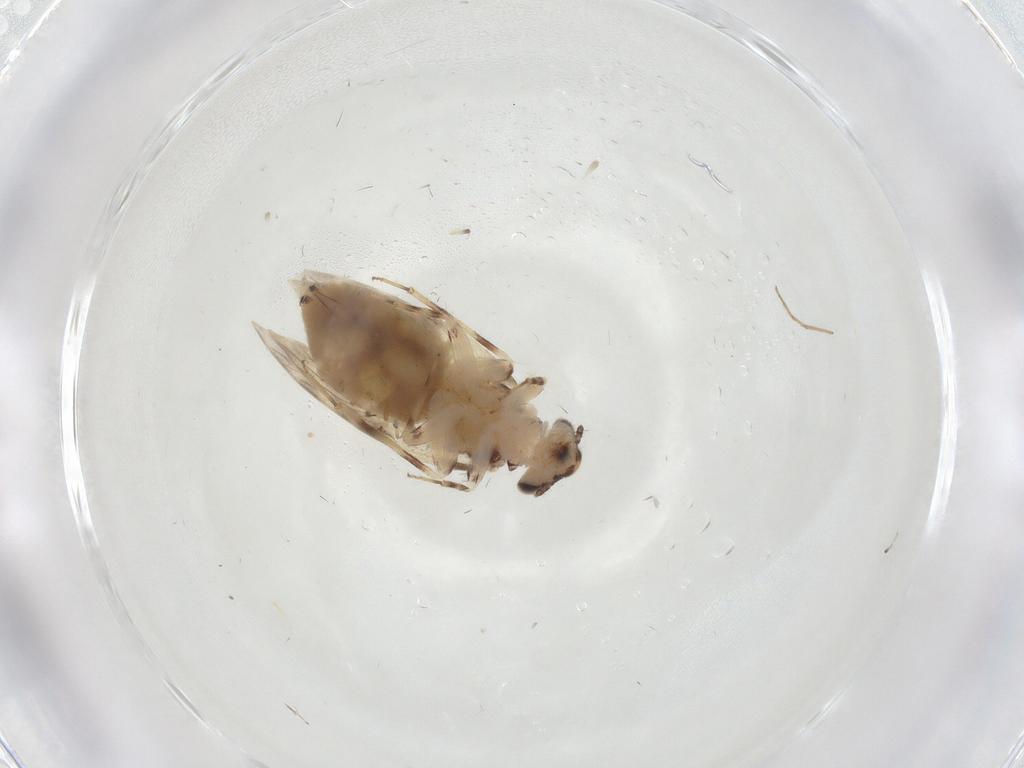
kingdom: Animalia
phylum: Arthropoda
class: Insecta
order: Psocodea
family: Lepidopsocidae
